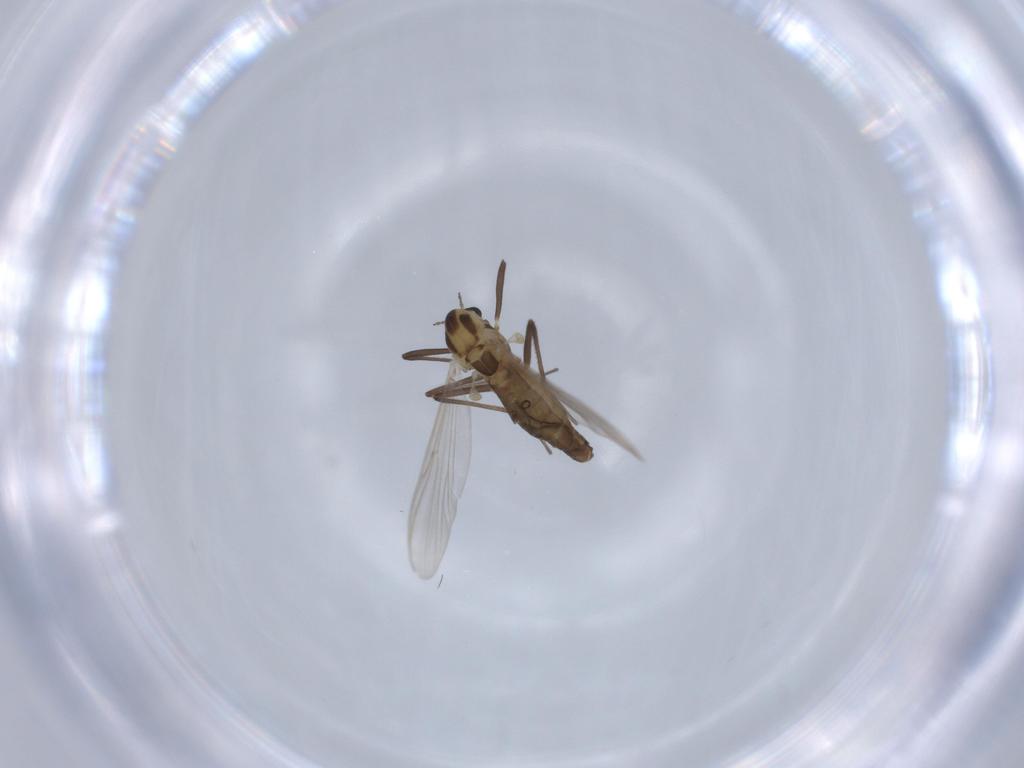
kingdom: Animalia
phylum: Arthropoda
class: Insecta
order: Diptera
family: Chironomidae
